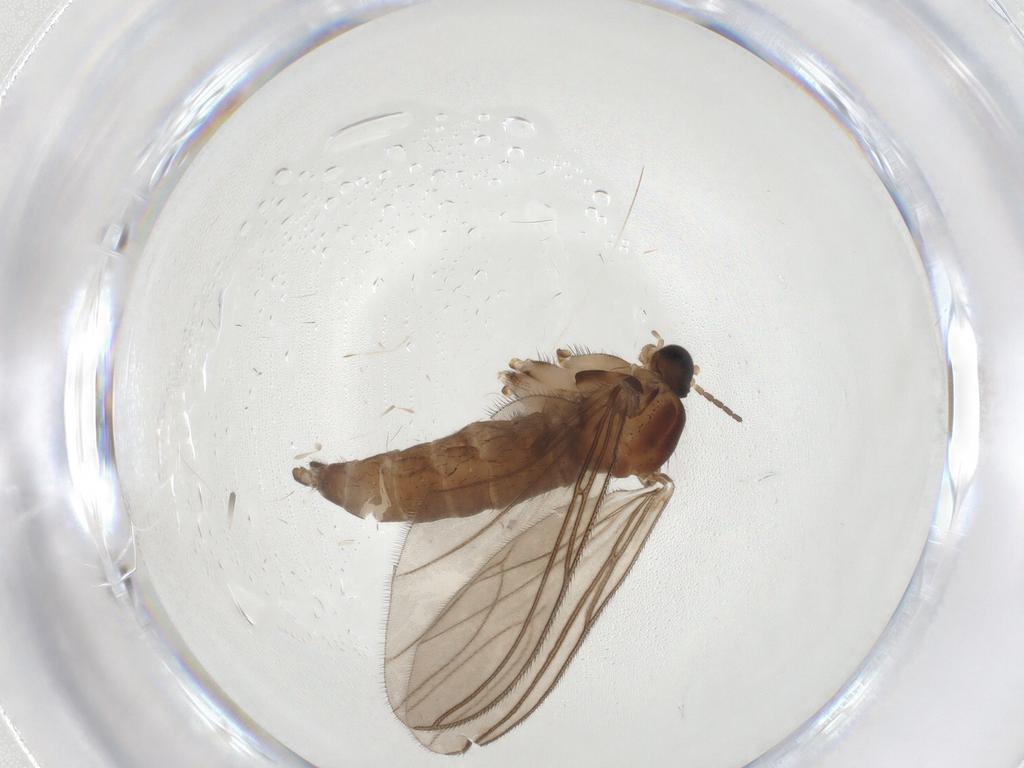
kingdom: Animalia
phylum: Arthropoda
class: Insecta
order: Diptera
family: Sciaridae
